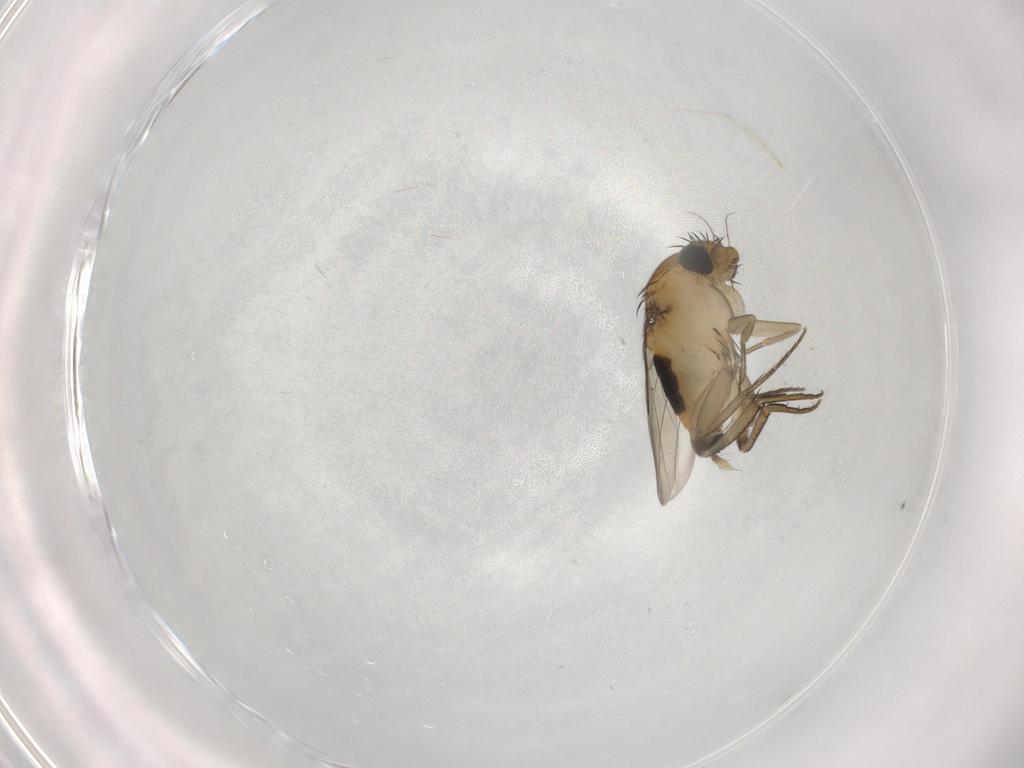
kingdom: Animalia
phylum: Arthropoda
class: Insecta
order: Diptera
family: Phoridae
